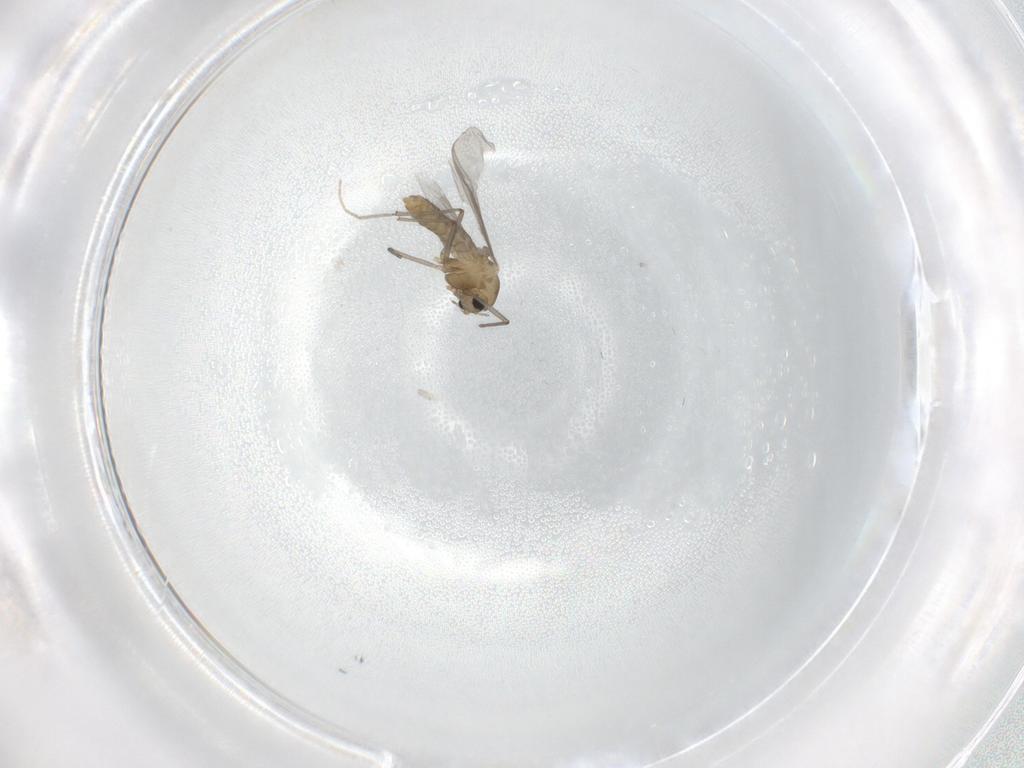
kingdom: Animalia
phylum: Arthropoda
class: Insecta
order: Diptera
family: Chironomidae
